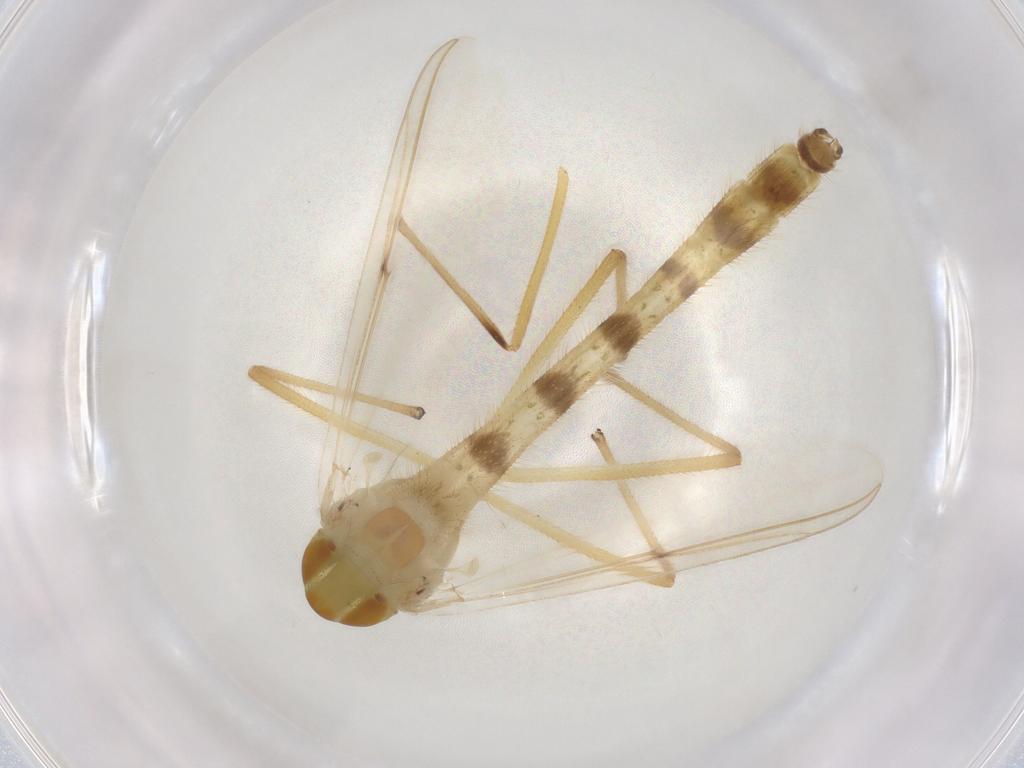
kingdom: Animalia
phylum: Arthropoda
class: Insecta
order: Diptera
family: Chironomidae
